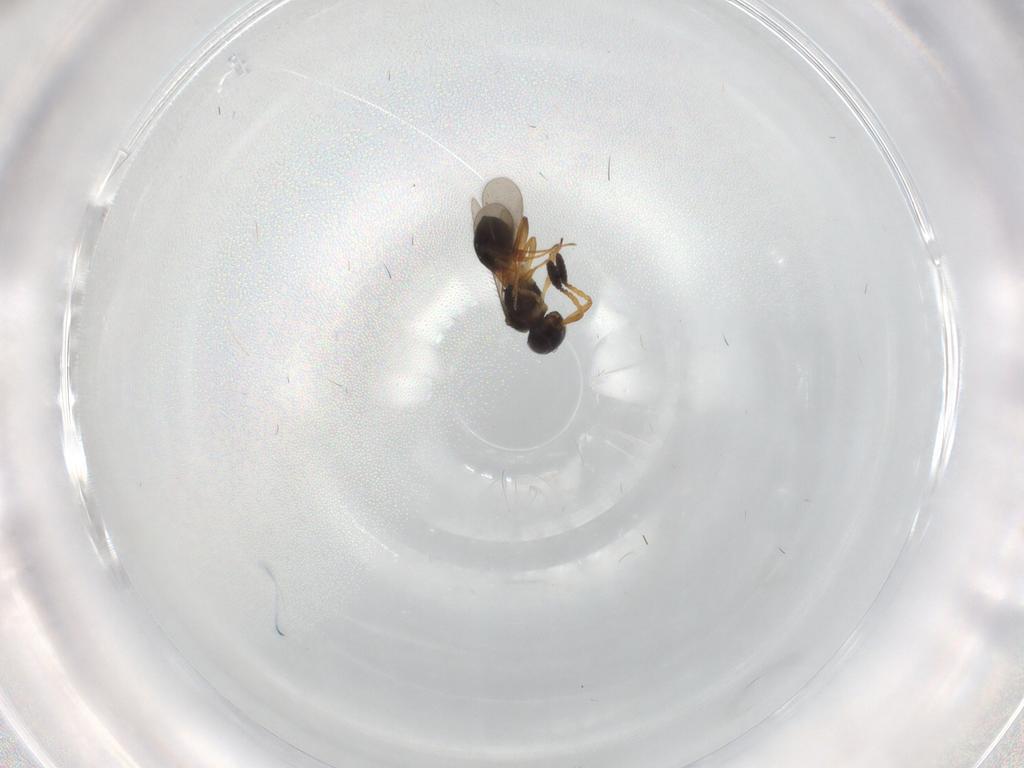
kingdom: Animalia
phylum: Arthropoda
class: Insecta
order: Hymenoptera
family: Scelionidae
